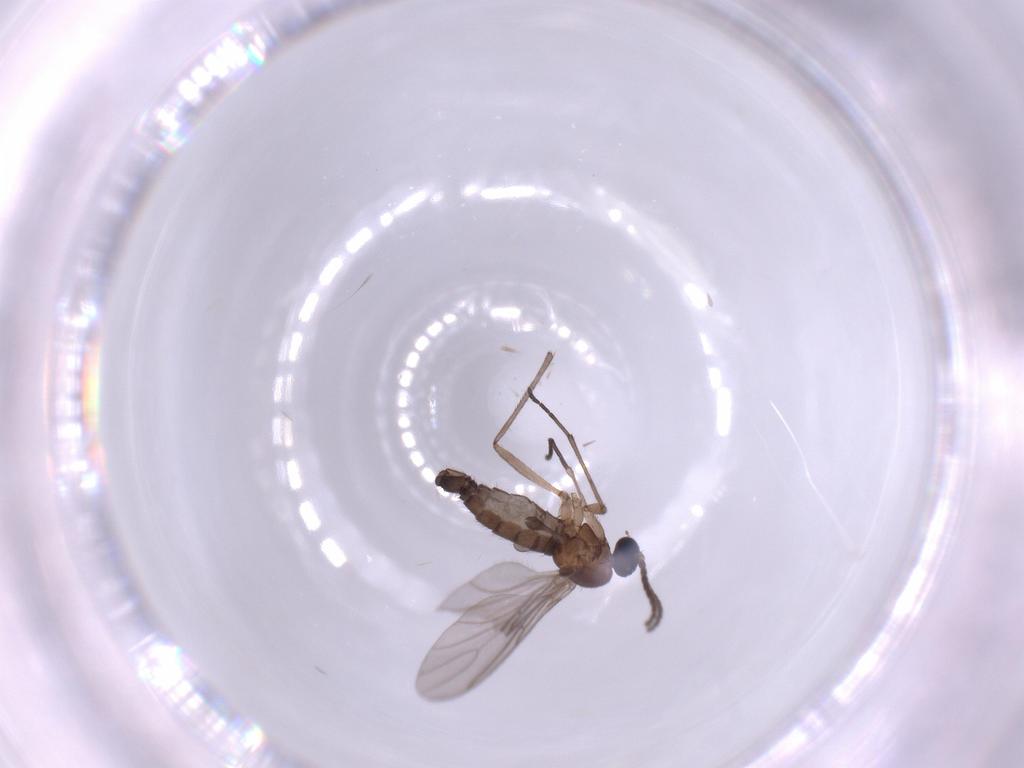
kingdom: Animalia
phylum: Arthropoda
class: Insecta
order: Diptera
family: Sciaridae
